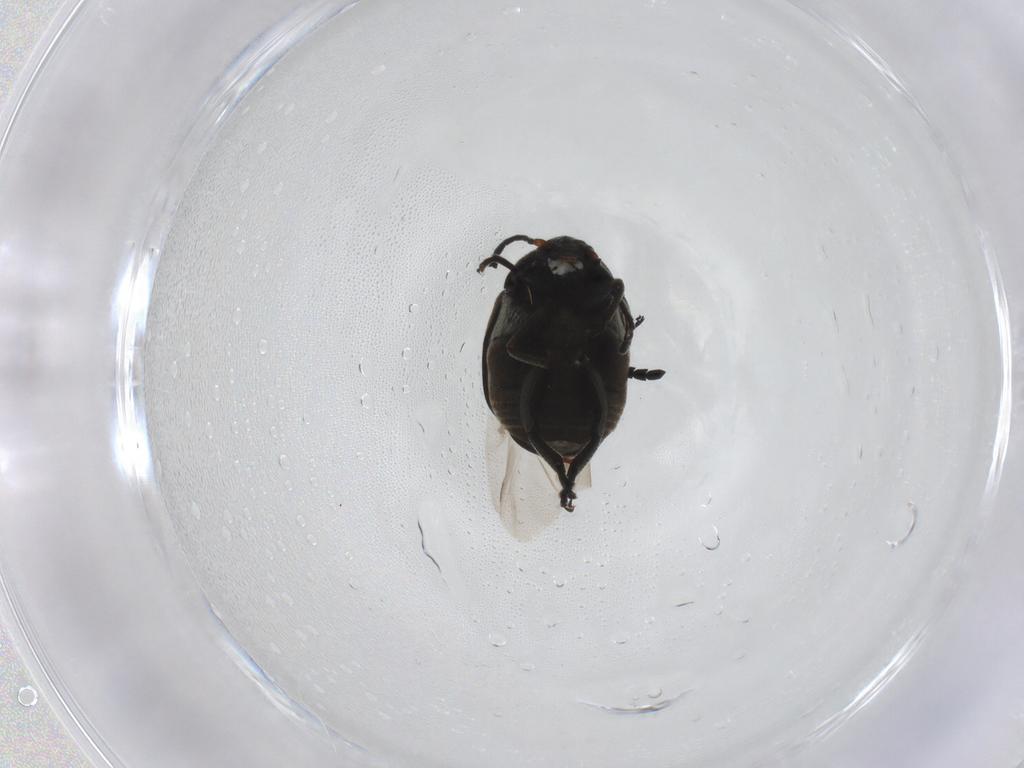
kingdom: Animalia
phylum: Arthropoda
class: Insecta
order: Coleoptera
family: Chrysomelidae
